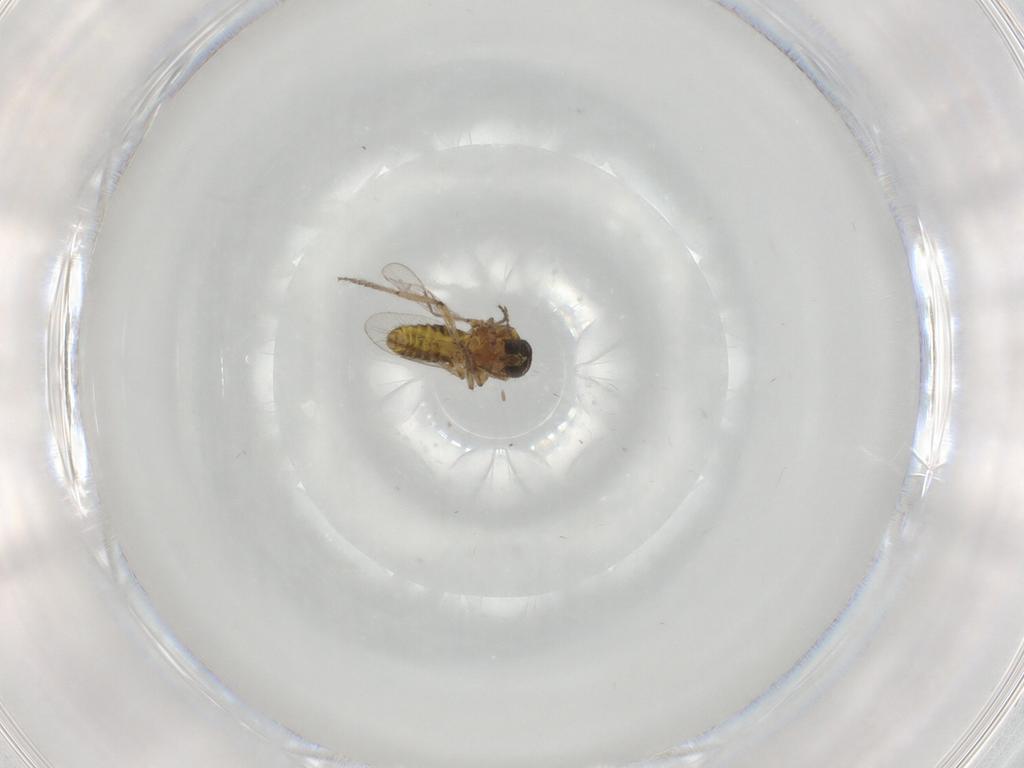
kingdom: Animalia
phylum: Arthropoda
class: Insecta
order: Diptera
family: Ceratopogonidae
